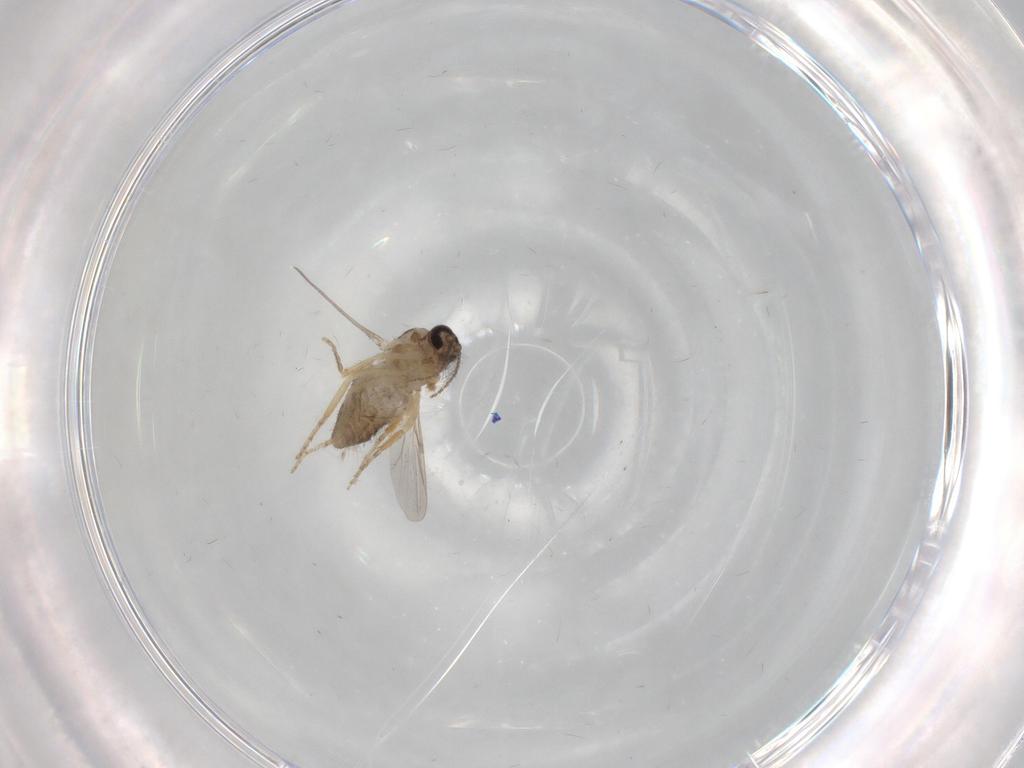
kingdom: Animalia
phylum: Arthropoda
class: Insecta
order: Diptera
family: Ceratopogonidae
